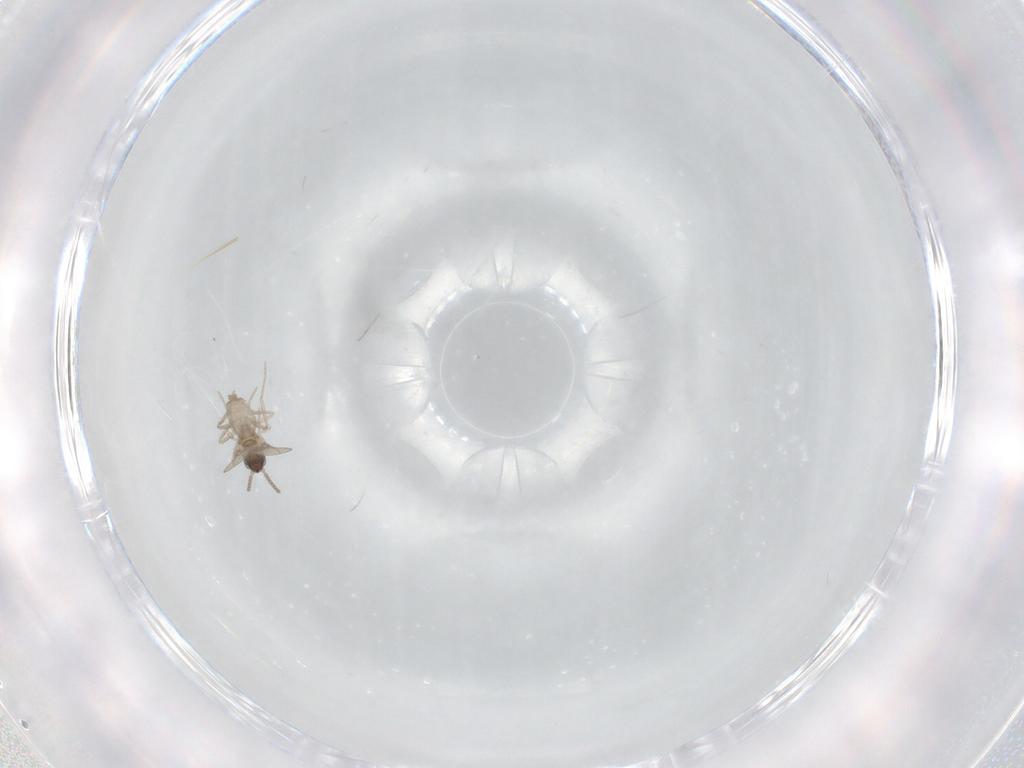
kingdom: Animalia
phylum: Arthropoda
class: Insecta
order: Diptera
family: Cecidomyiidae
